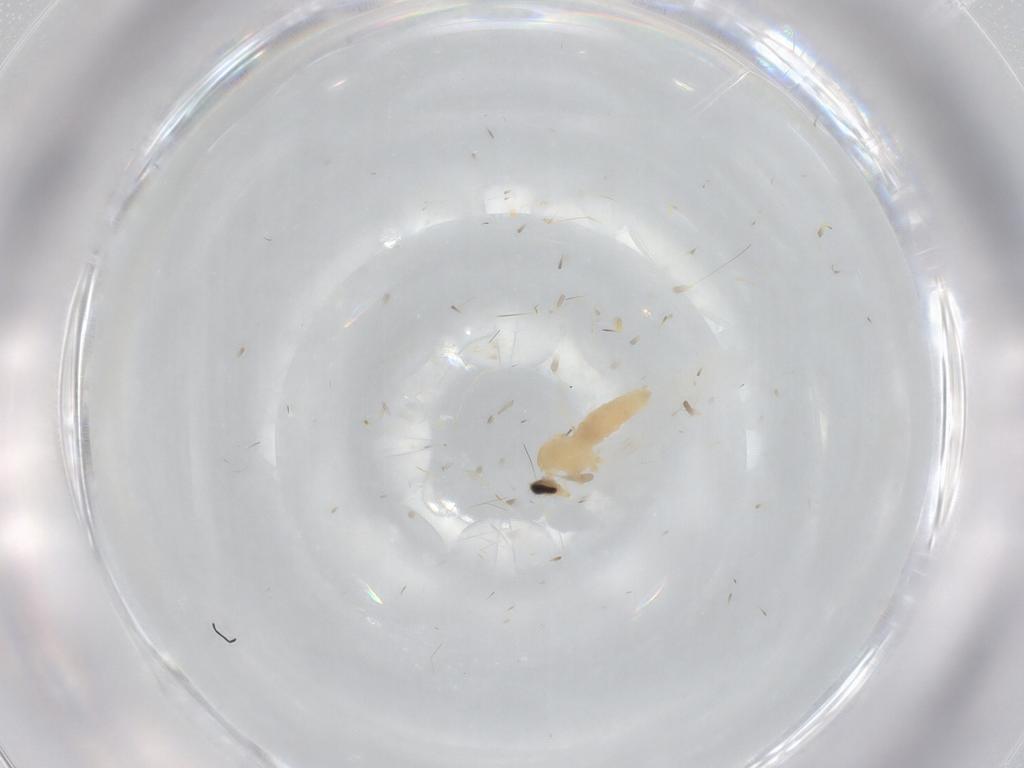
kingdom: Animalia
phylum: Arthropoda
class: Insecta
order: Diptera
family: Cecidomyiidae
